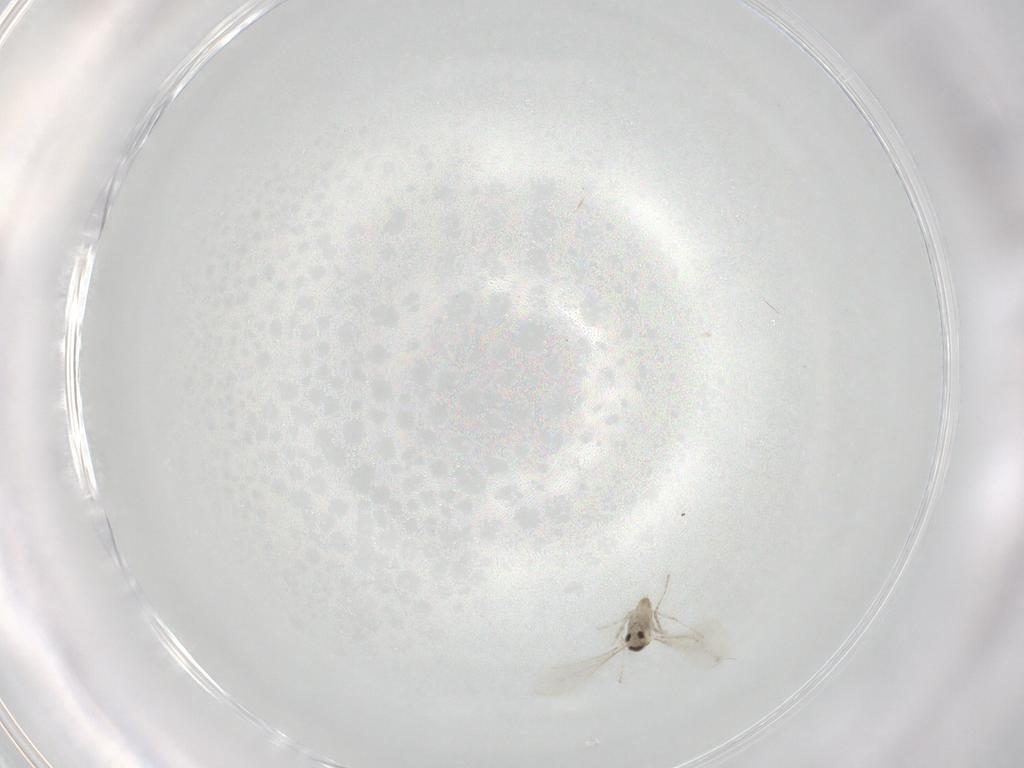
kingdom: Animalia
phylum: Arthropoda
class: Insecta
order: Diptera
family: Cecidomyiidae
